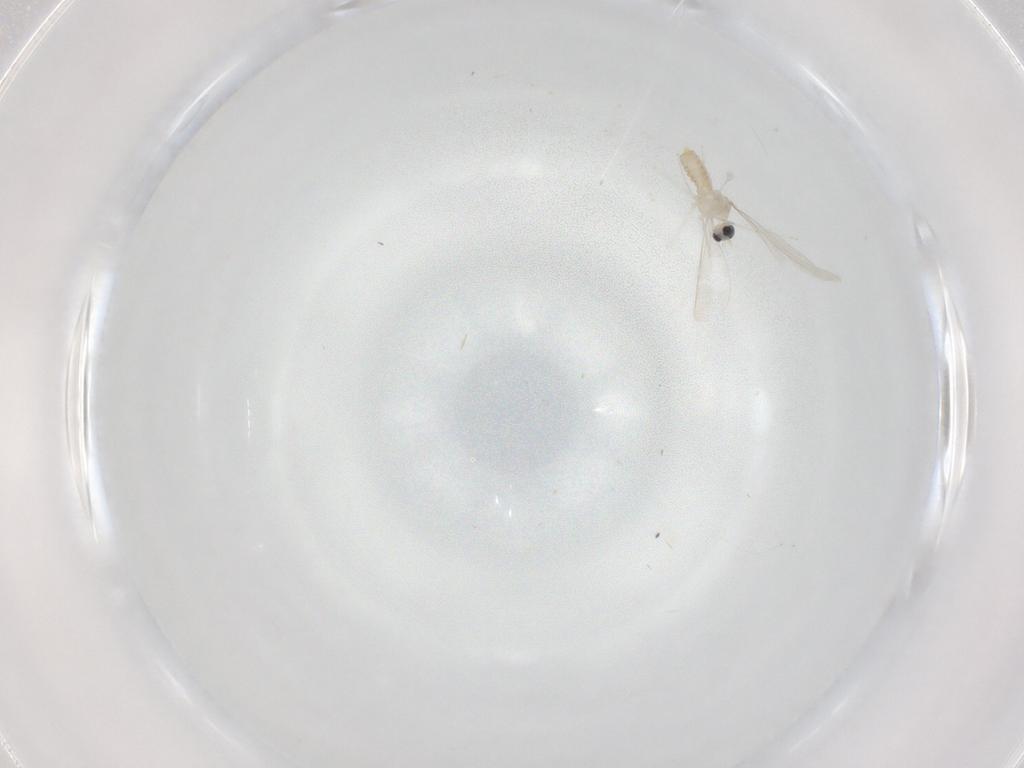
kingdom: Animalia
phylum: Arthropoda
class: Insecta
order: Diptera
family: Cecidomyiidae
